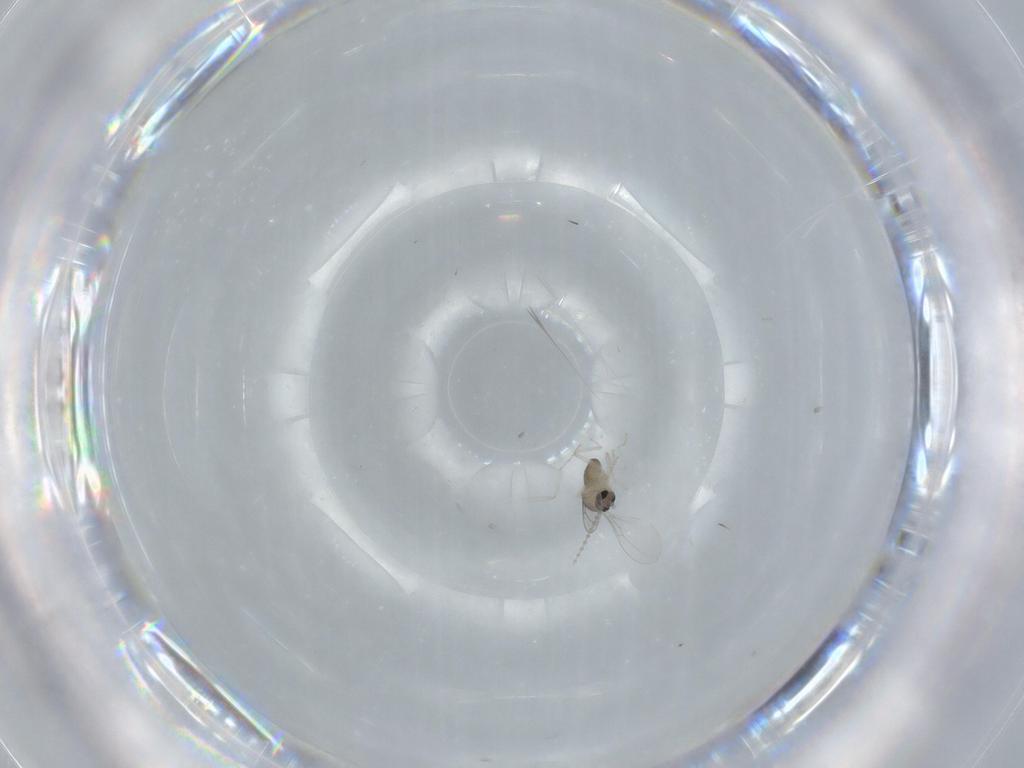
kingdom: Animalia
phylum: Arthropoda
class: Insecta
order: Diptera
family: Cecidomyiidae
